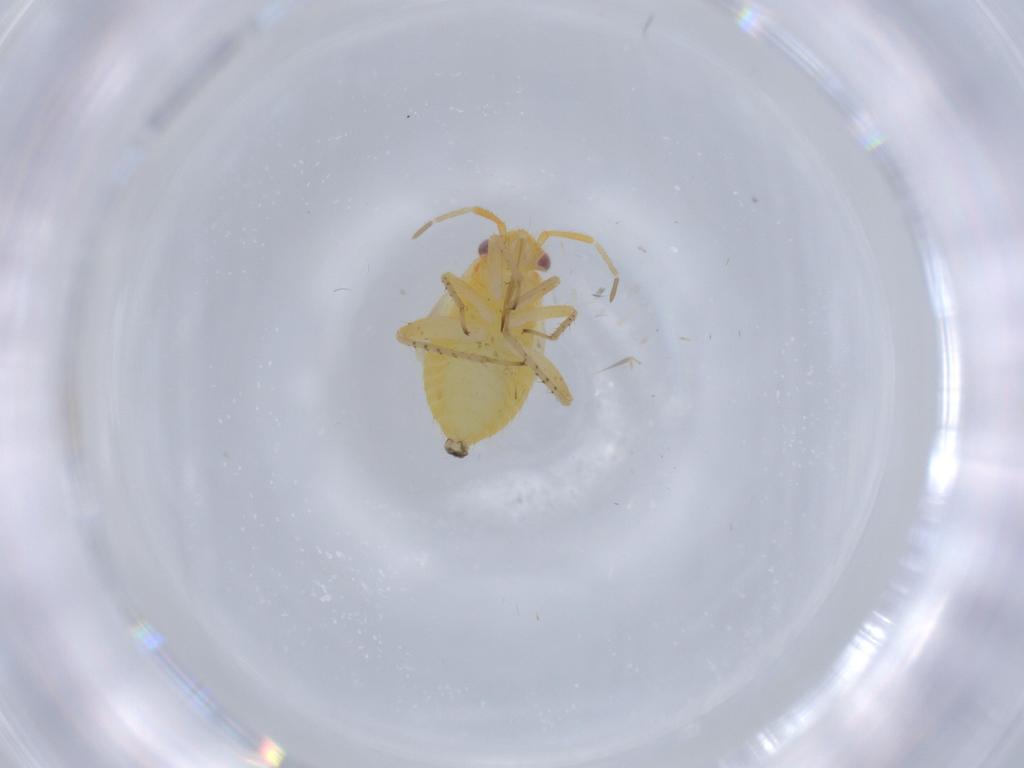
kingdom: Animalia
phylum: Arthropoda
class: Insecta
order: Hemiptera
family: Miridae
